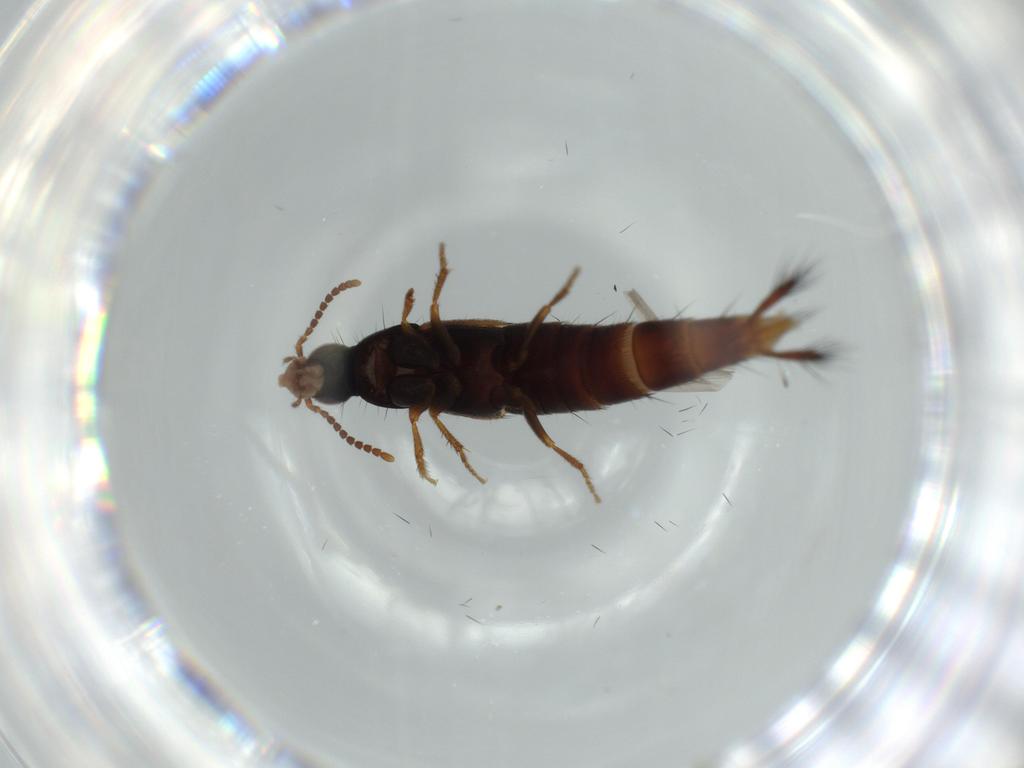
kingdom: Animalia
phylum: Arthropoda
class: Insecta
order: Coleoptera
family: Staphylinidae
